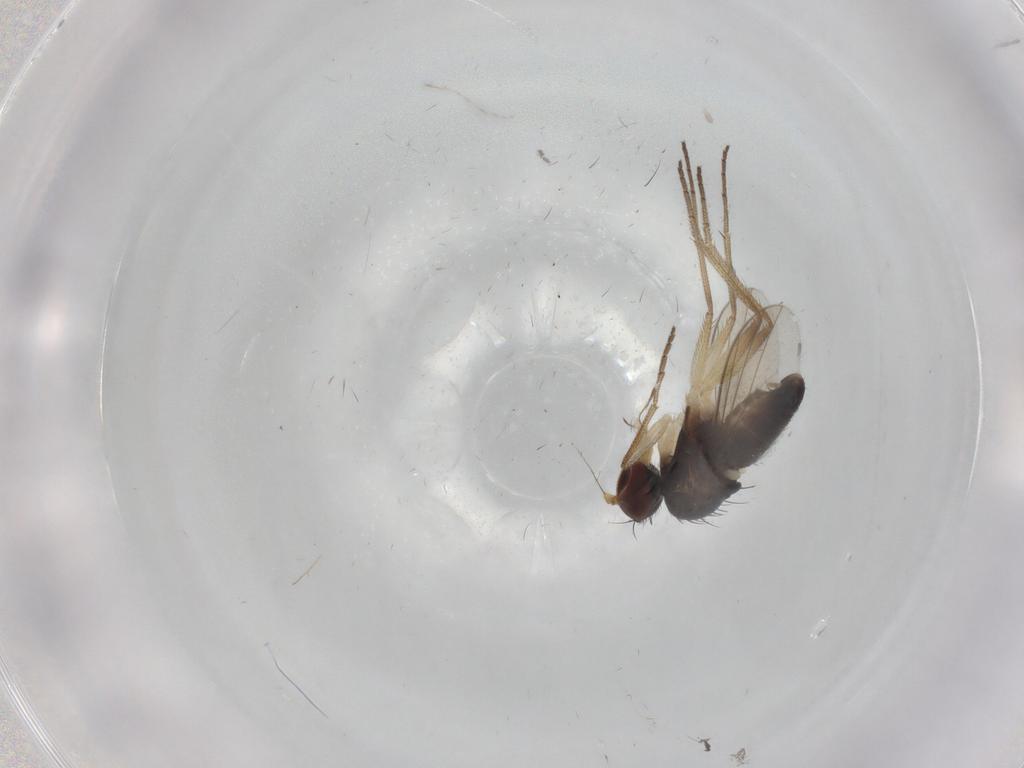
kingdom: Animalia
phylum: Arthropoda
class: Insecta
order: Diptera
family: Dolichopodidae
